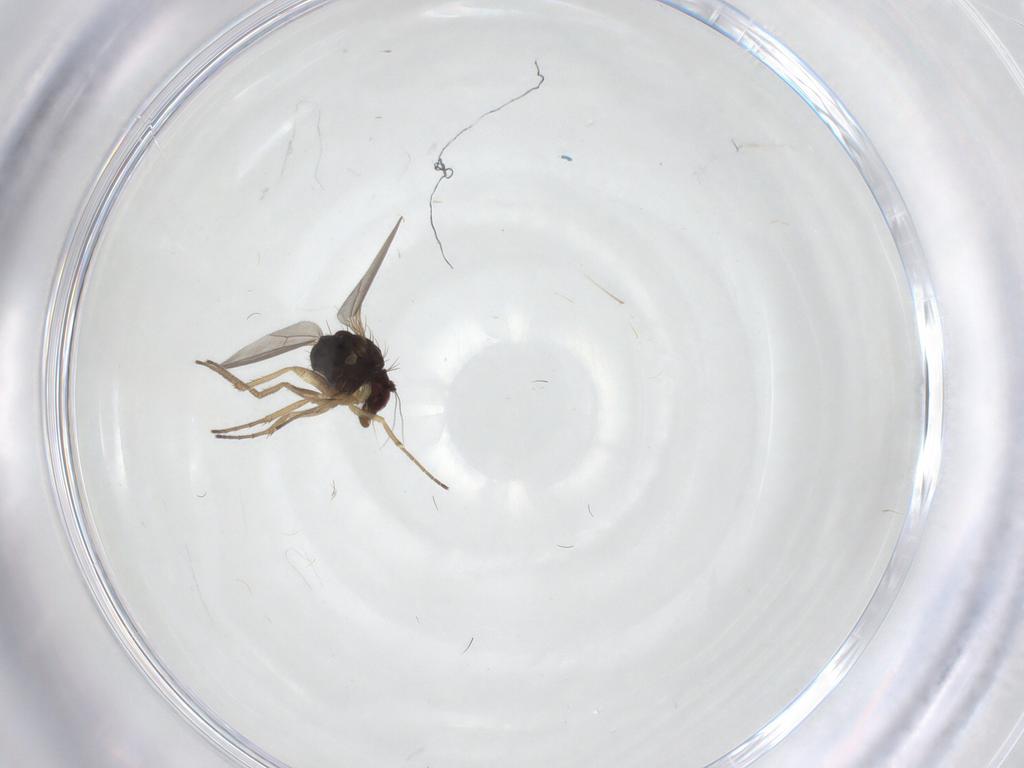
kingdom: Animalia
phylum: Arthropoda
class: Insecta
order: Diptera
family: Dolichopodidae
